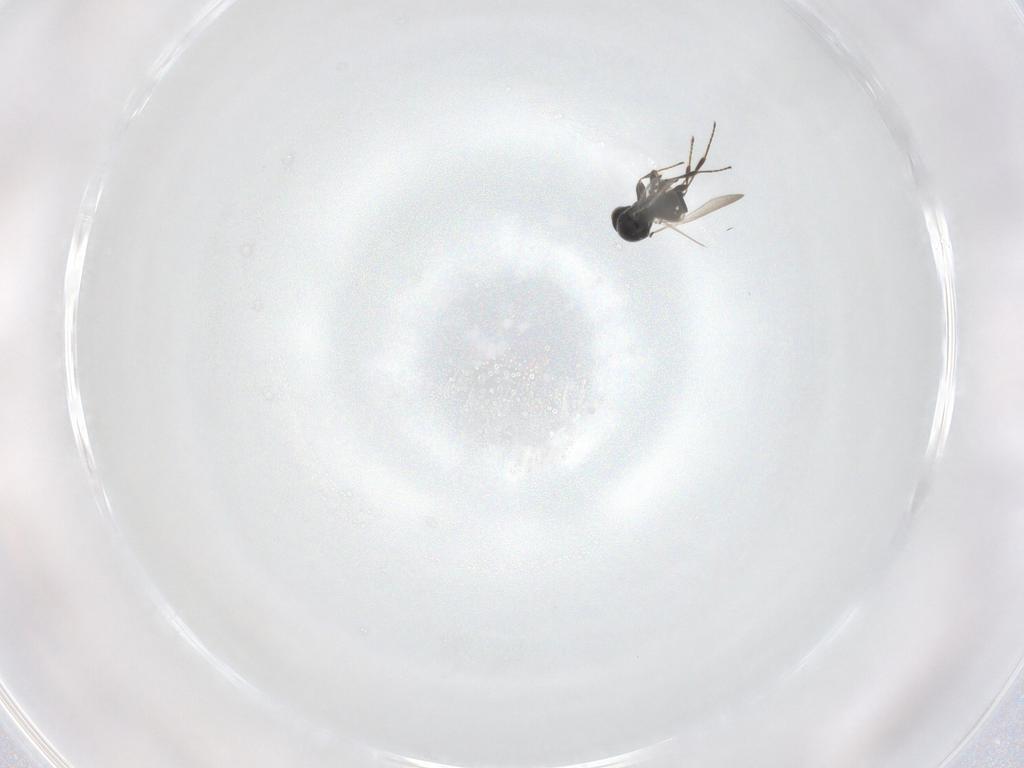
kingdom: Animalia
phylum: Arthropoda
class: Insecta
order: Hymenoptera
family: Platygastridae
